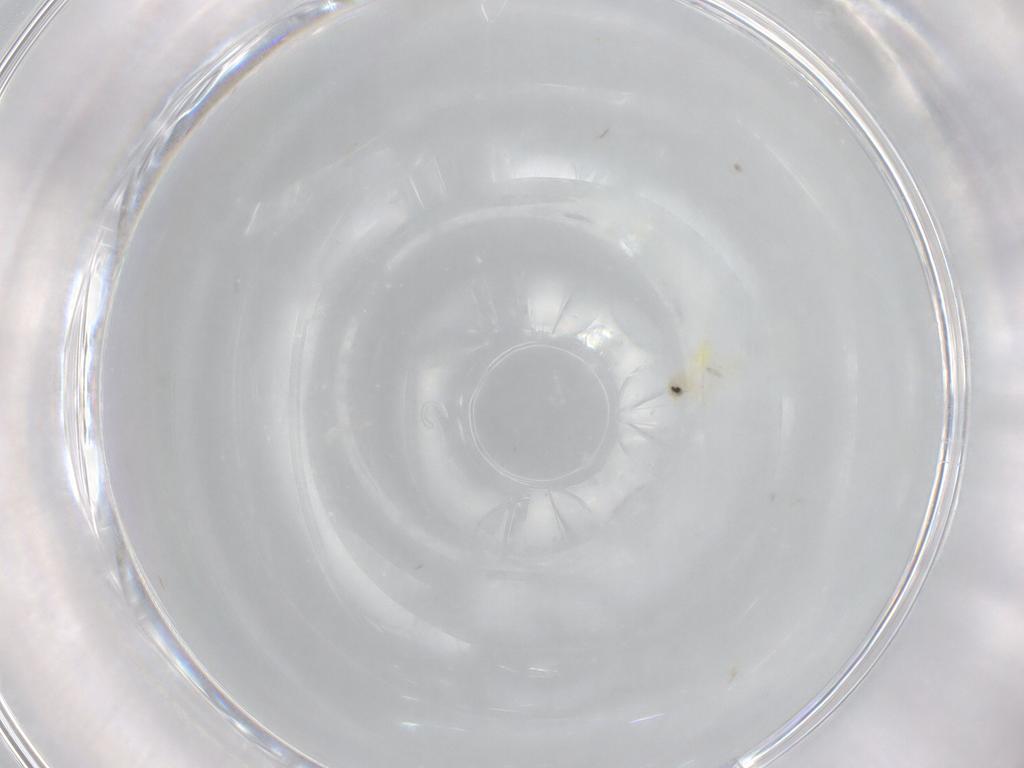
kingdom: Animalia
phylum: Arthropoda
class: Insecta
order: Hemiptera
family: Aleyrodidae
